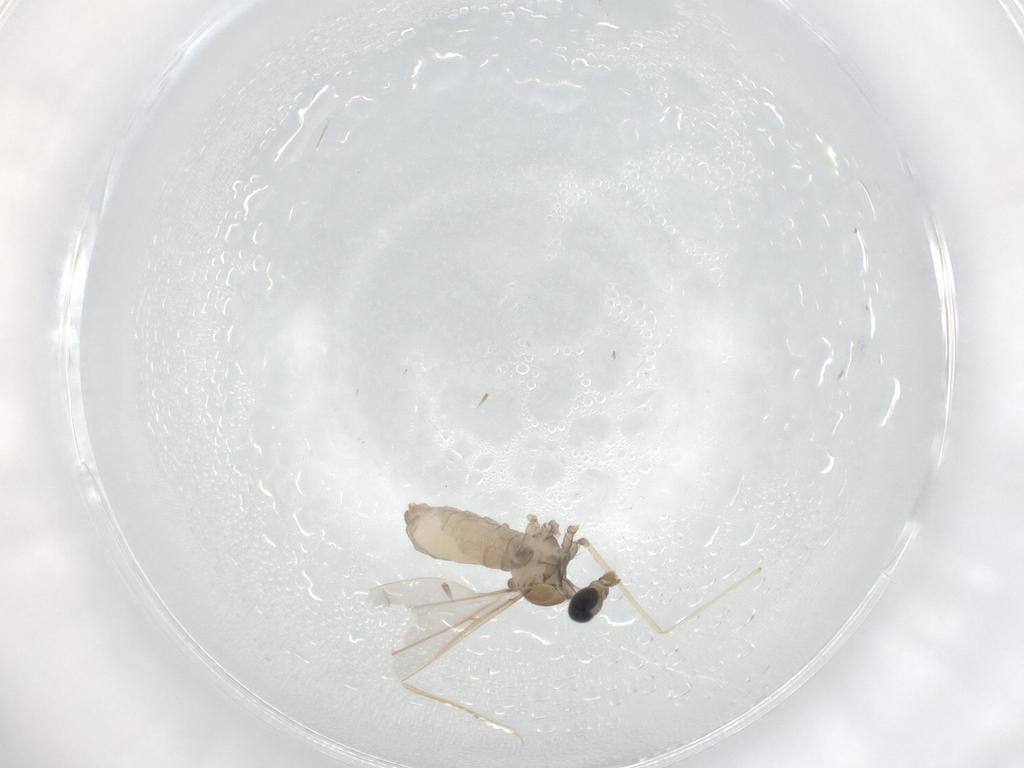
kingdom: Animalia
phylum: Arthropoda
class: Insecta
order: Diptera
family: Cecidomyiidae
